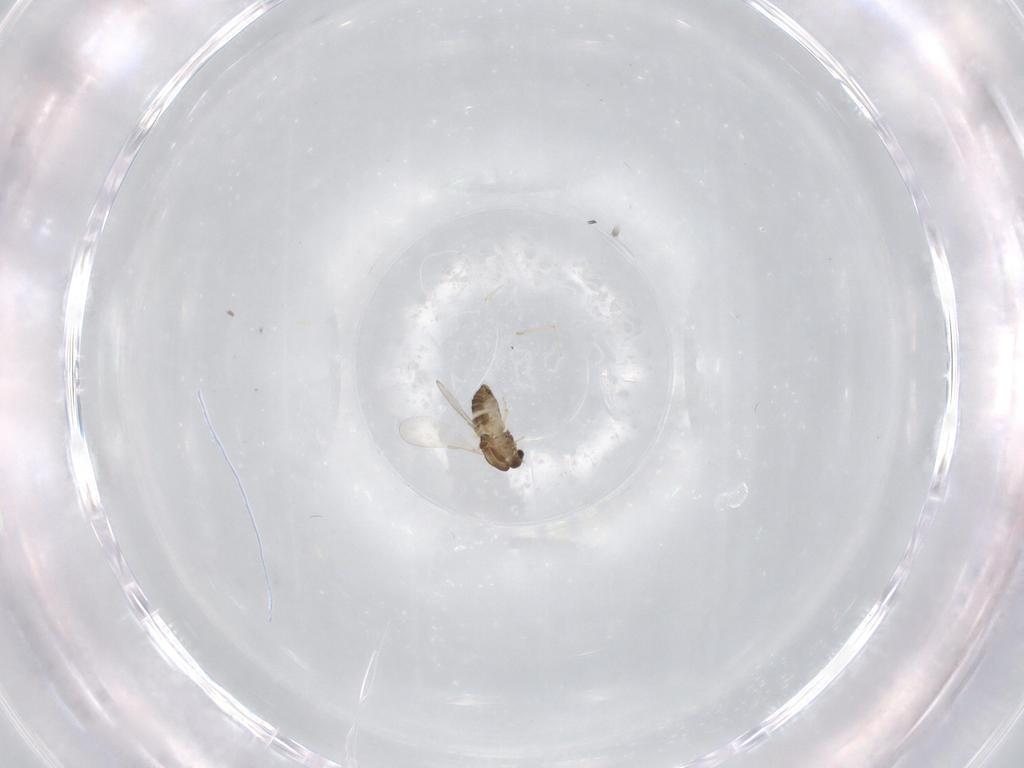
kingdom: Animalia
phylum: Arthropoda
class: Insecta
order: Diptera
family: Chironomidae
